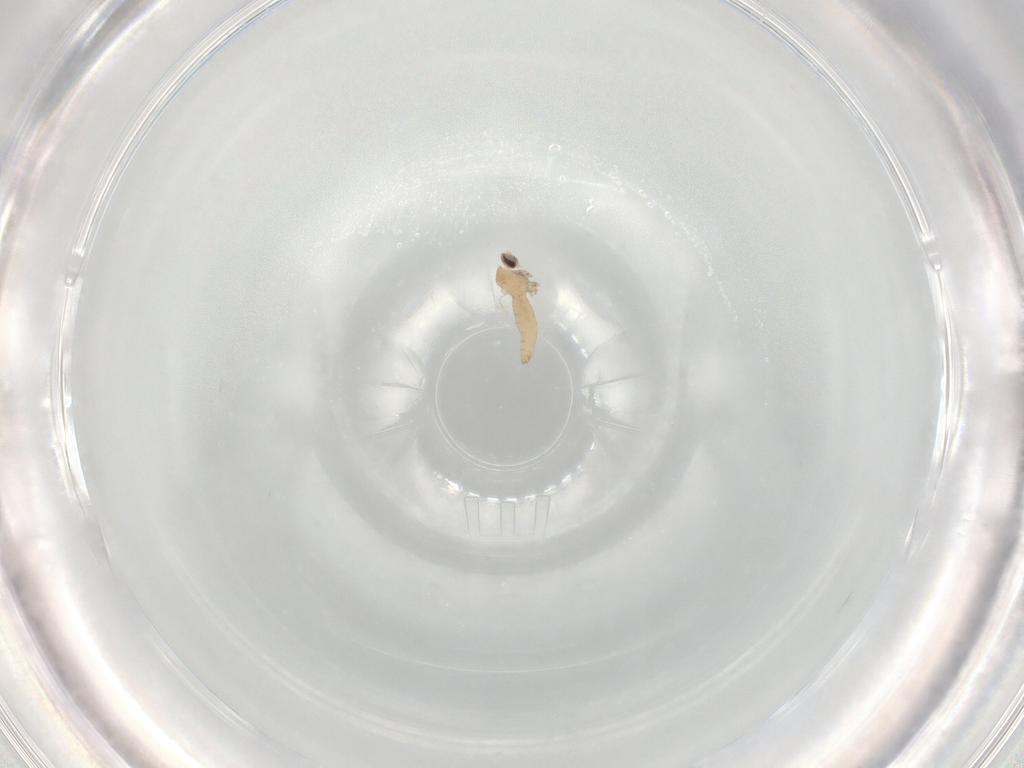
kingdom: Animalia
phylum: Arthropoda
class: Insecta
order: Diptera
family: Cecidomyiidae
